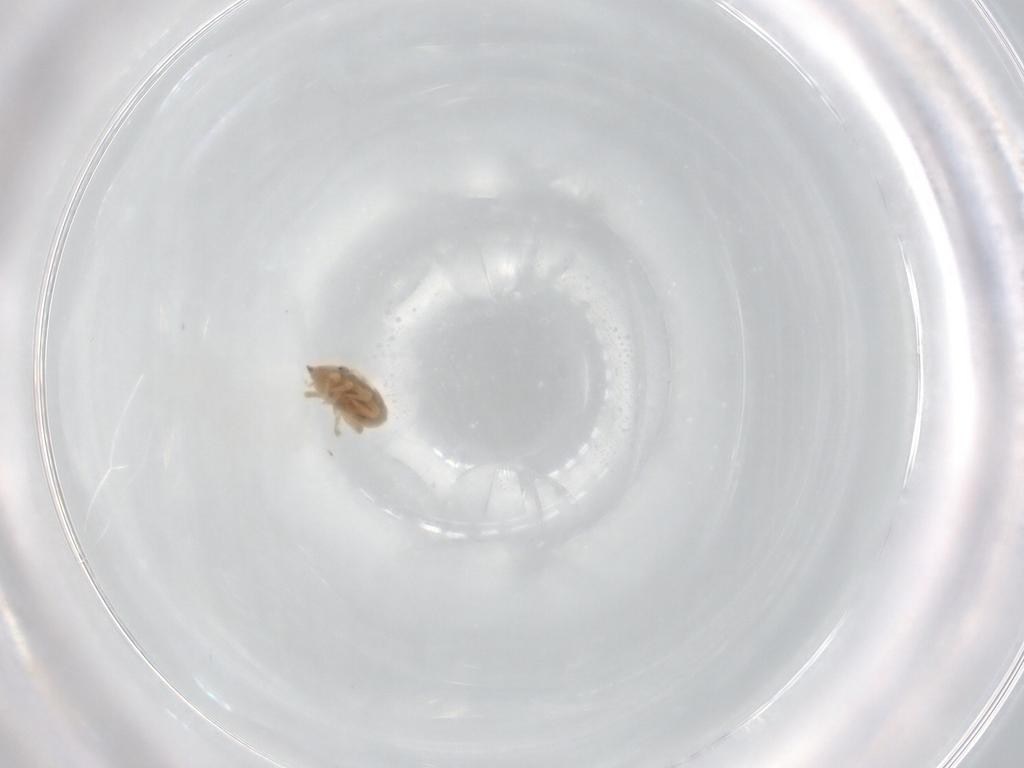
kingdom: Animalia
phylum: Arthropoda
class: Arachnida
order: Trombidiformes
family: Bdellidae
